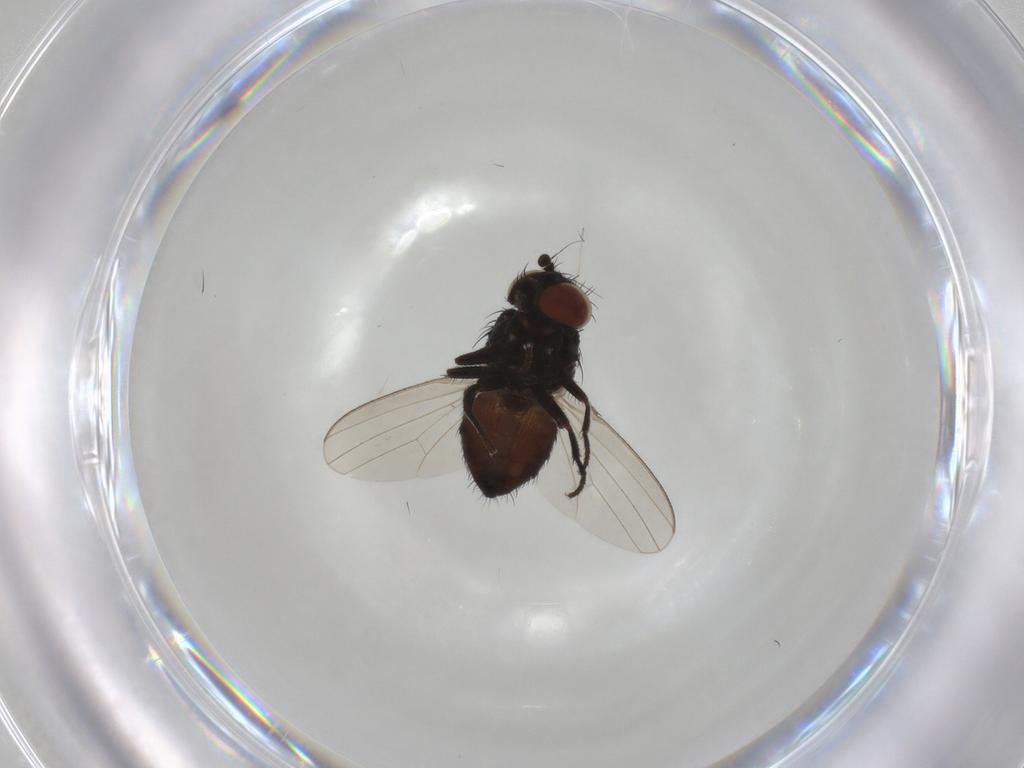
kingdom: Animalia
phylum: Arthropoda
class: Insecta
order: Diptera
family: Milichiidae
